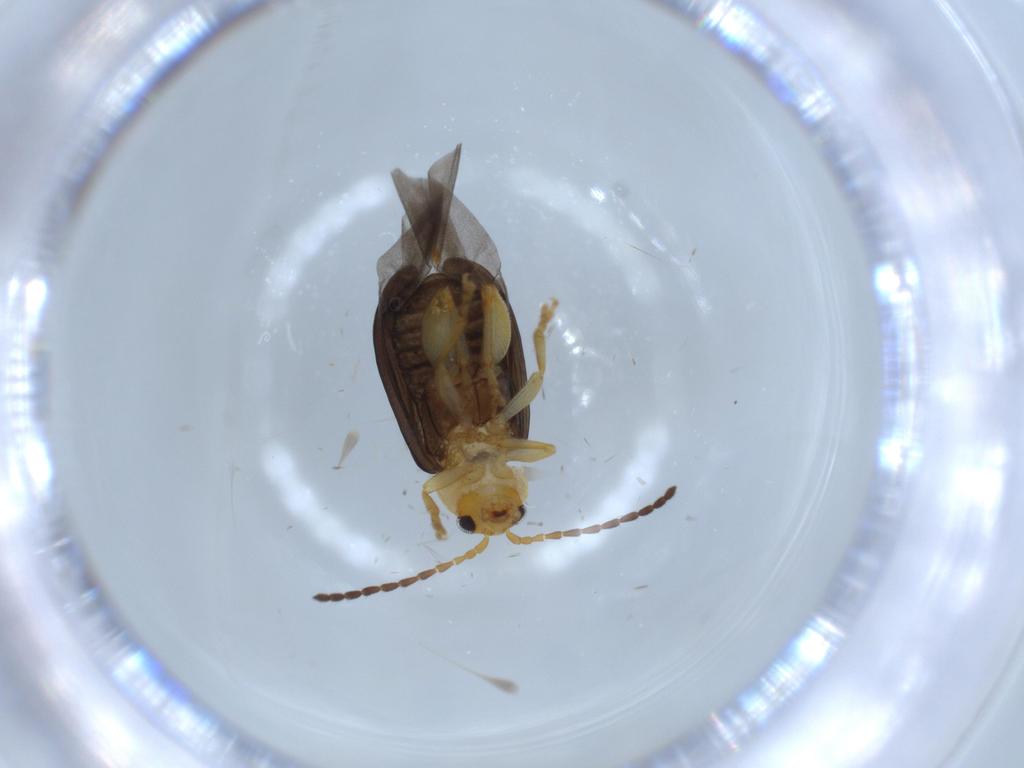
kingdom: Animalia
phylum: Arthropoda
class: Insecta
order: Coleoptera
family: Chrysomelidae
